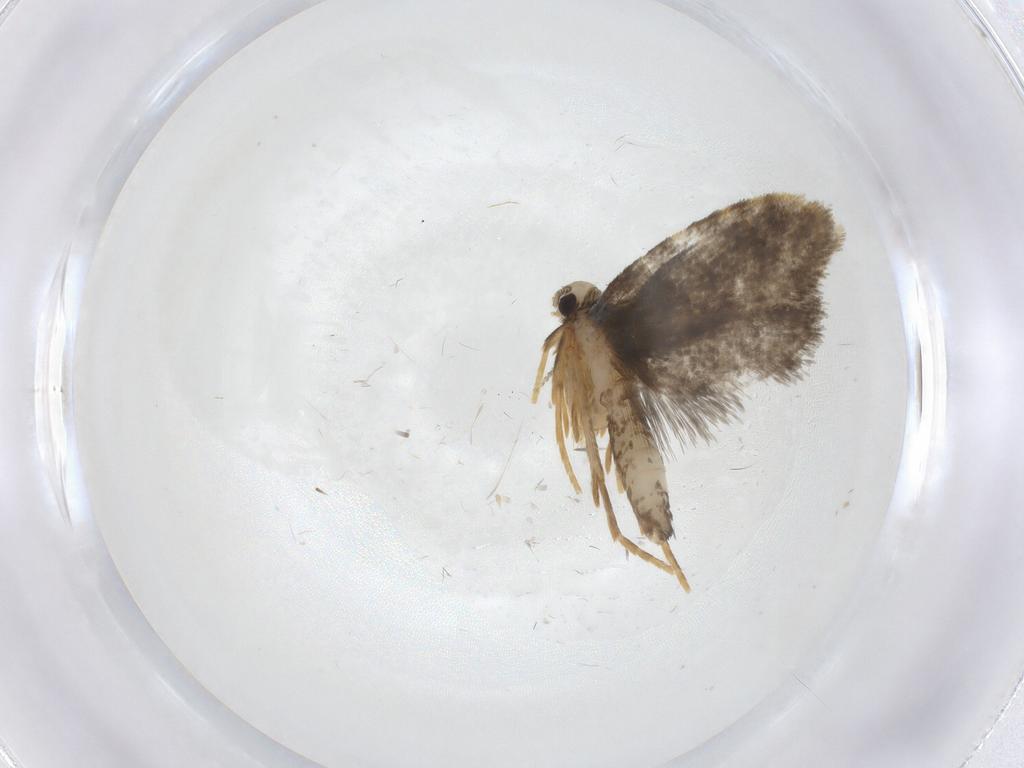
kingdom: Animalia
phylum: Arthropoda
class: Insecta
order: Lepidoptera
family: Psychidae
